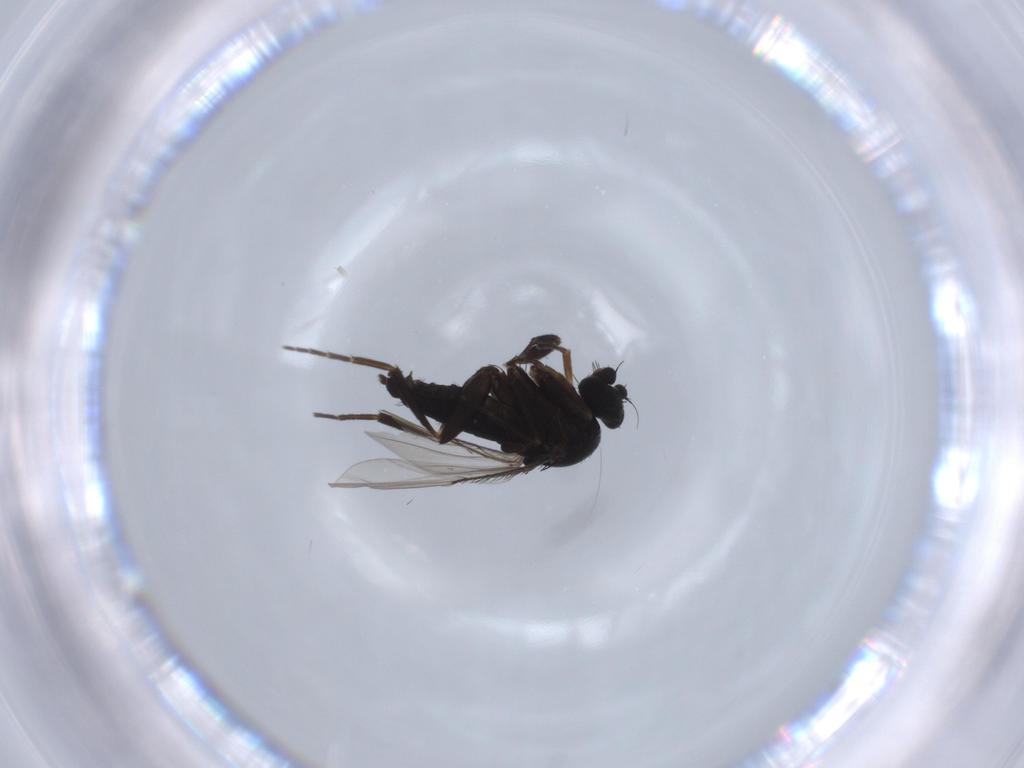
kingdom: Animalia
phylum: Arthropoda
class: Insecta
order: Diptera
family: Phoridae
